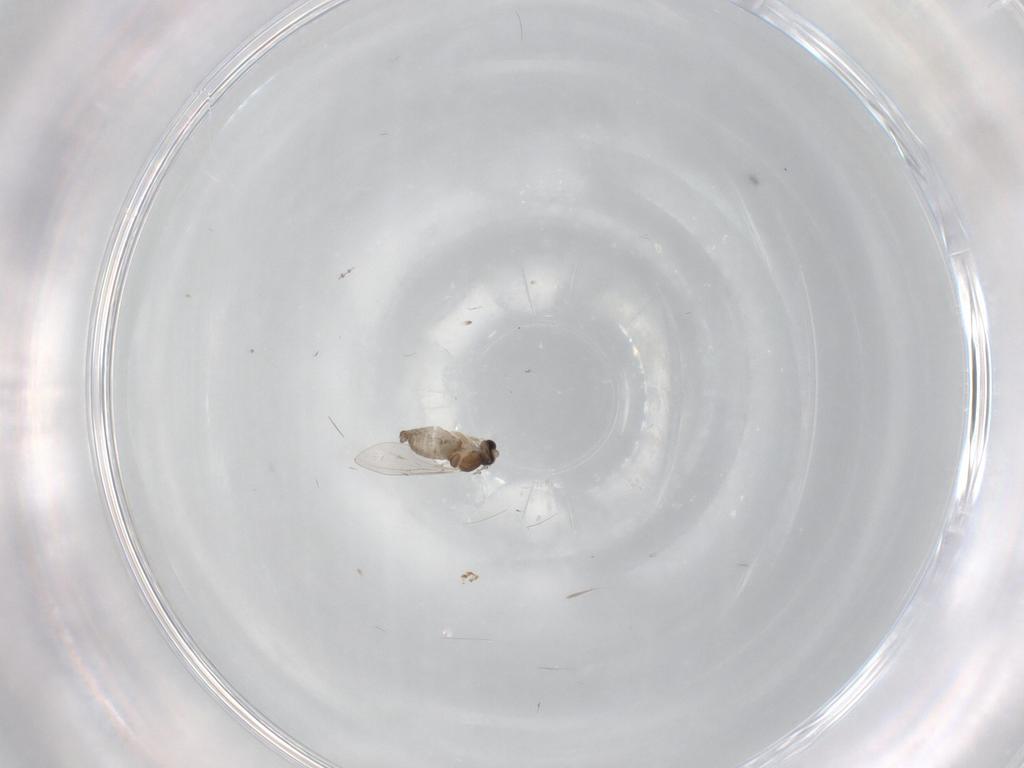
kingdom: Animalia
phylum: Arthropoda
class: Insecta
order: Diptera
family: Cecidomyiidae
